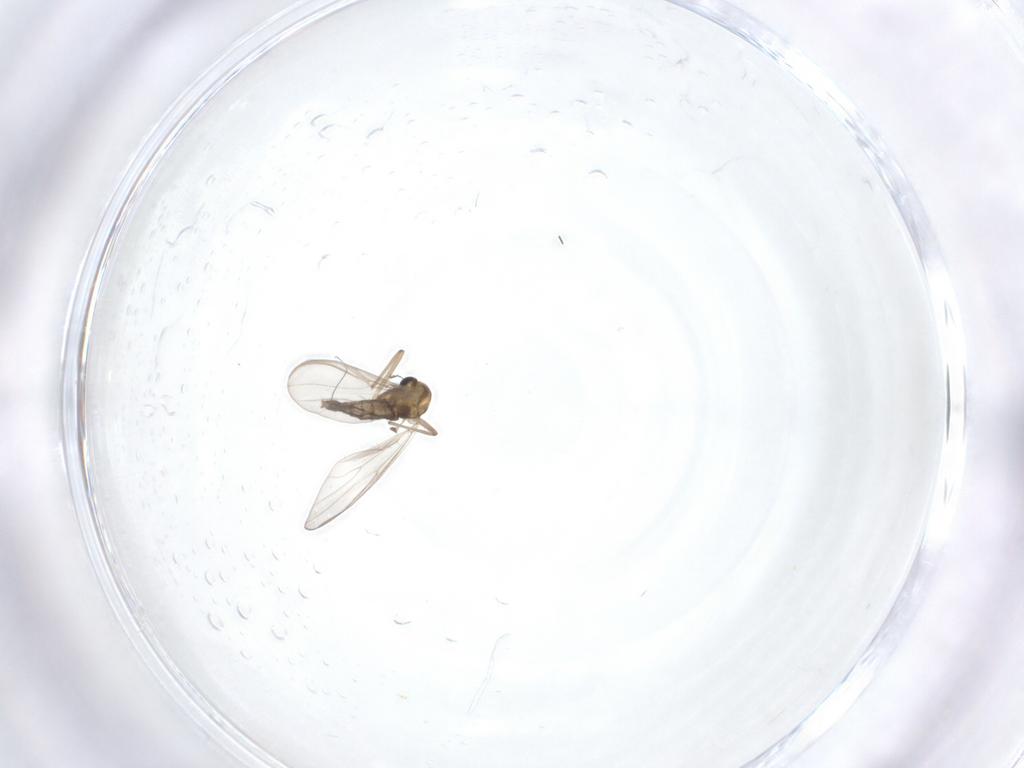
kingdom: Animalia
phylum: Arthropoda
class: Insecta
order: Diptera
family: Chironomidae
